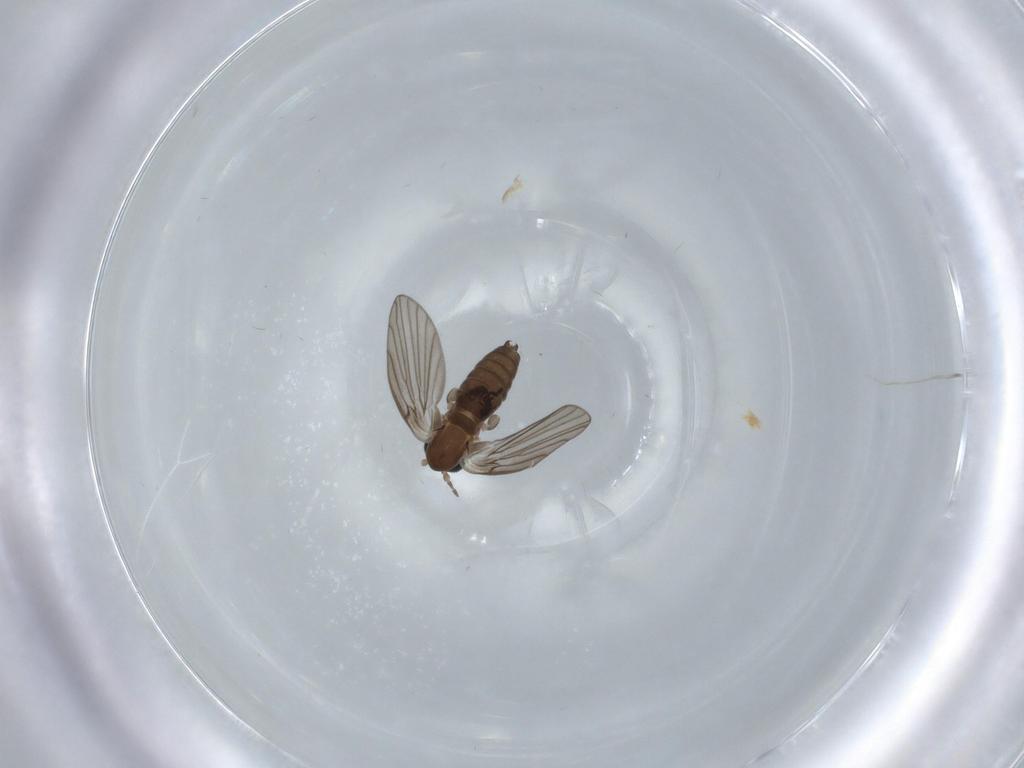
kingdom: Animalia
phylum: Arthropoda
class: Insecta
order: Diptera
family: Psychodidae
